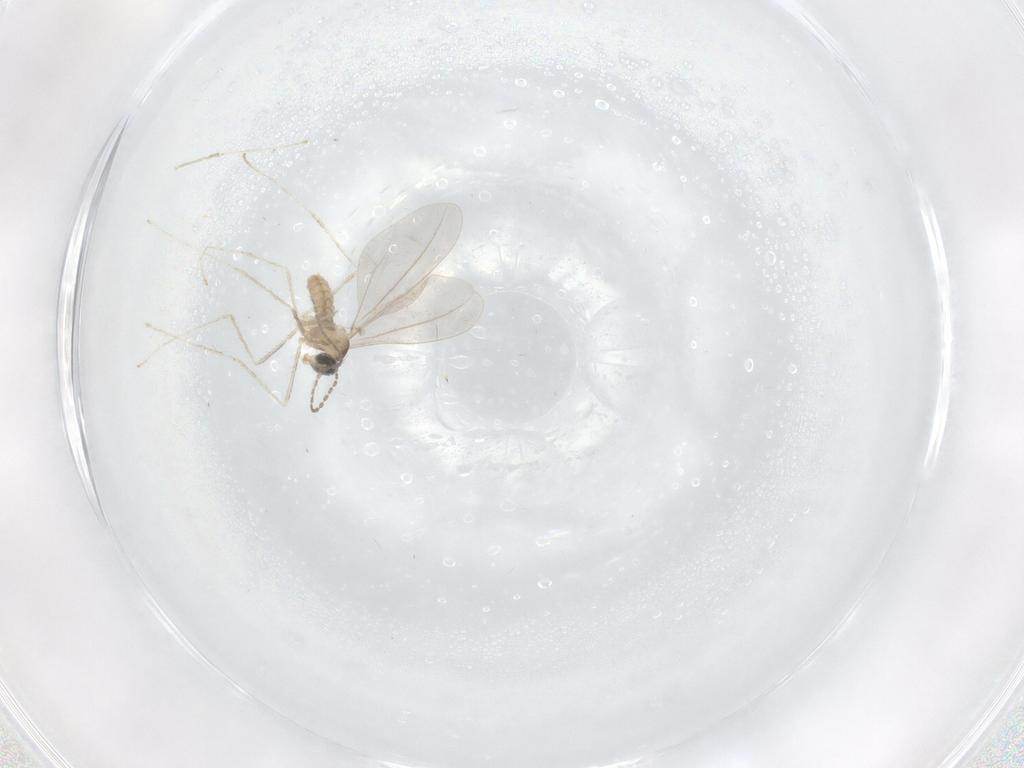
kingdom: Animalia
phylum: Arthropoda
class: Insecta
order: Diptera
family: Cecidomyiidae
